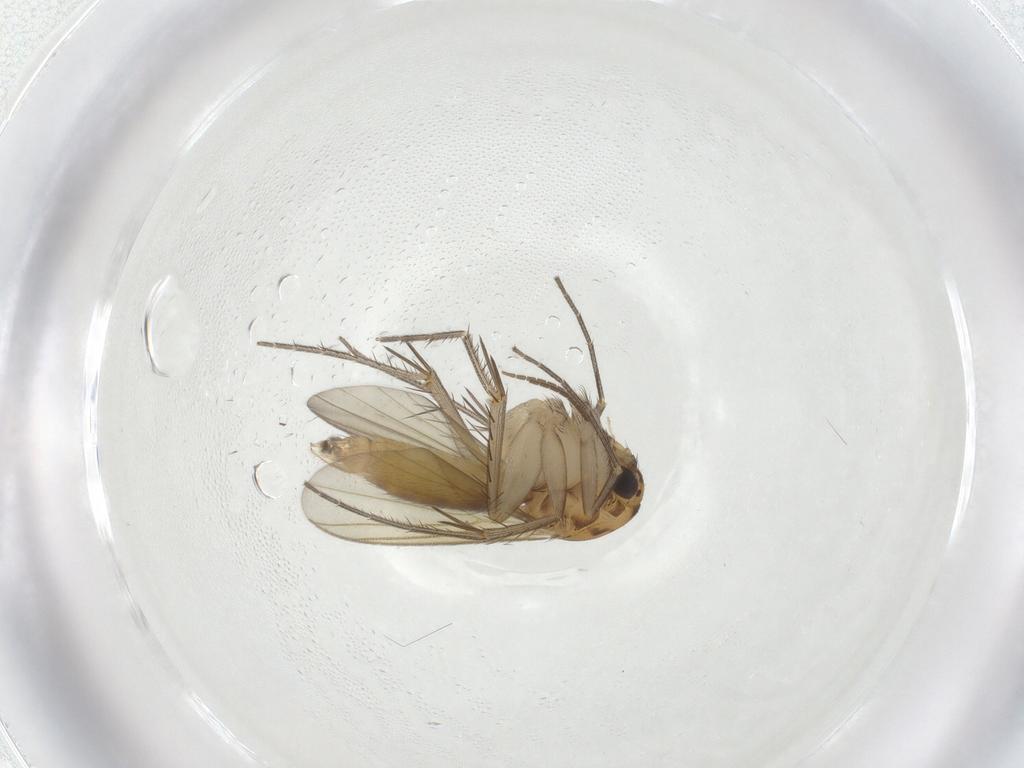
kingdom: Animalia
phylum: Arthropoda
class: Insecta
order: Diptera
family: Mycetophilidae
